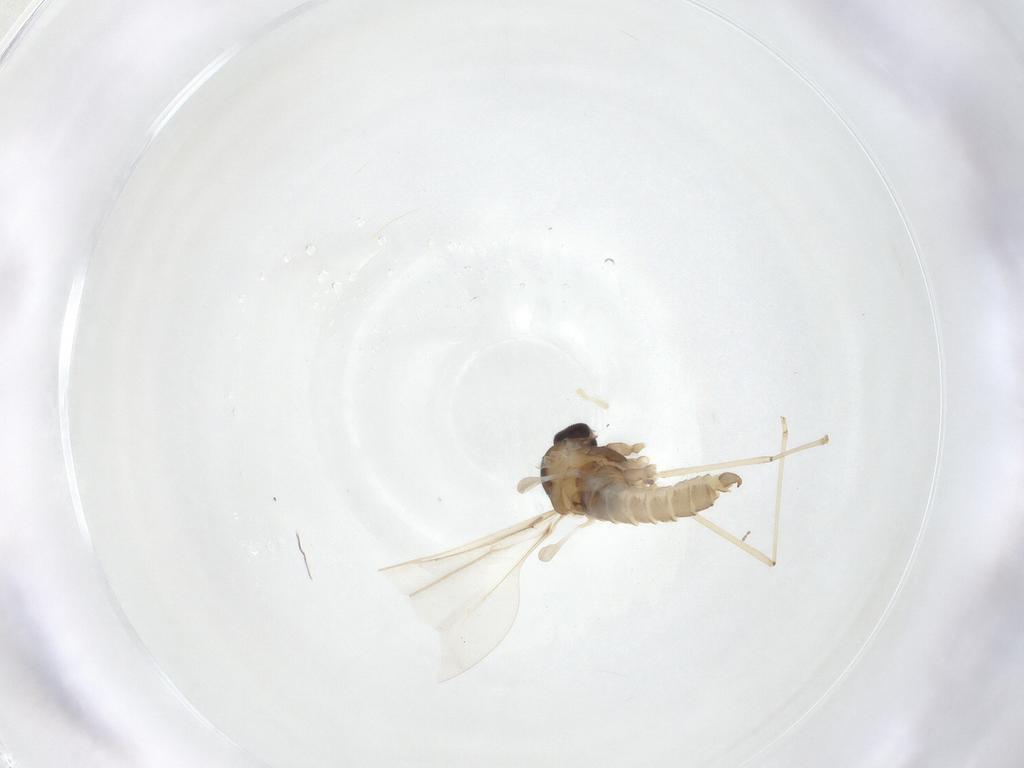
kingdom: Animalia
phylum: Arthropoda
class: Insecta
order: Diptera
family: Cecidomyiidae
